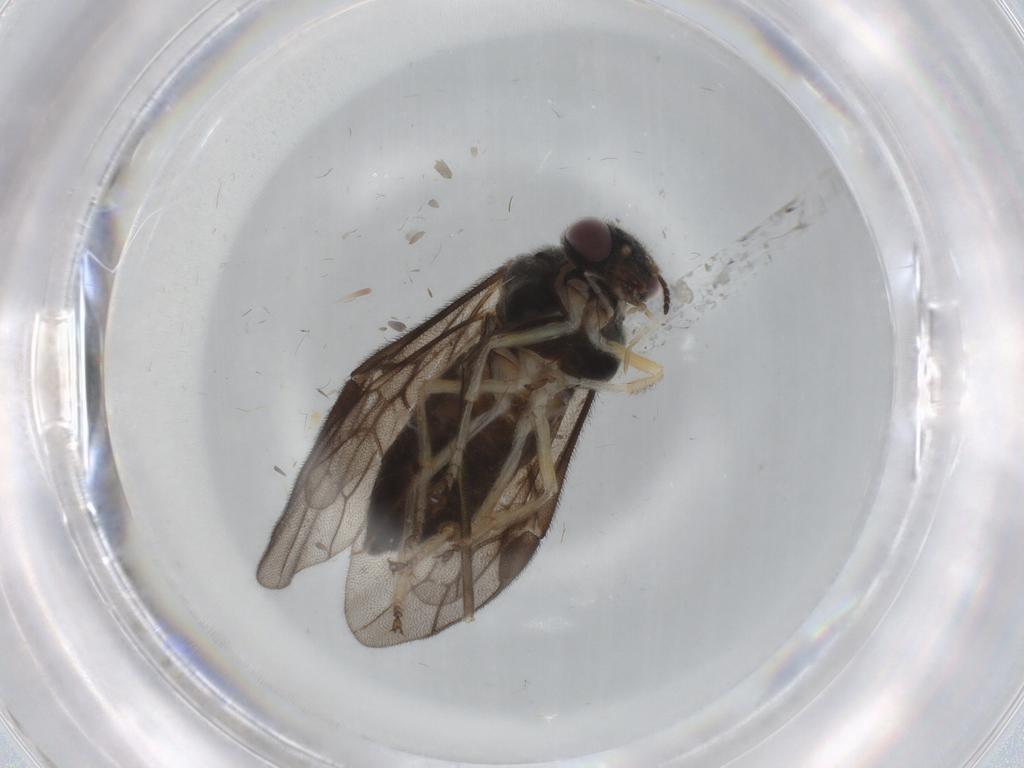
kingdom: Animalia
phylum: Arthropoda
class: Insecta
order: Hymenoptera
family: Pergidae
